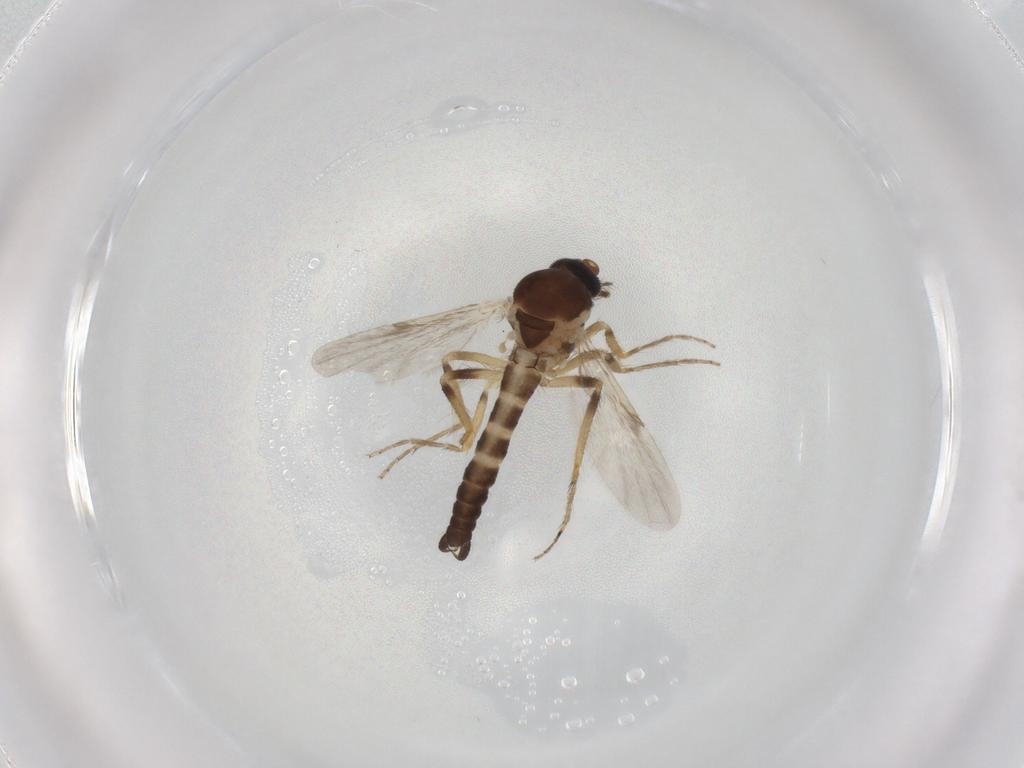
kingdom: Animalia
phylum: Arthropoda
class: Insecta
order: Diptera
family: Ceratopogonidae
